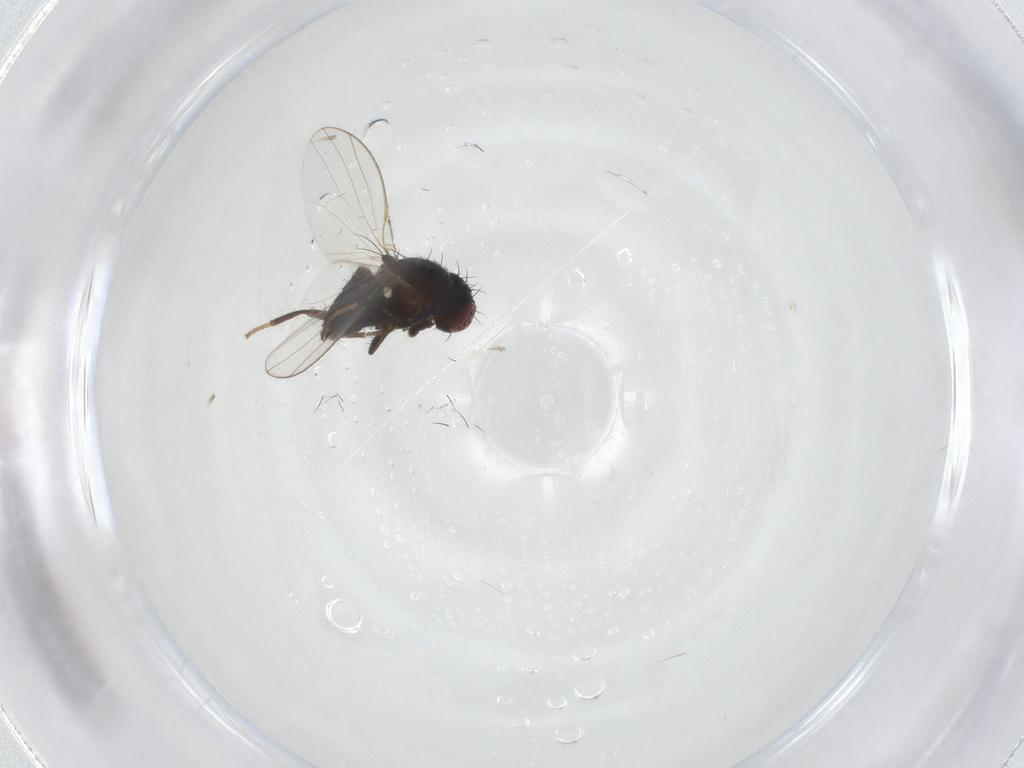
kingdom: Animalia
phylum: Arthropoda
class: Insecta
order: Diptera
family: Carnidae
